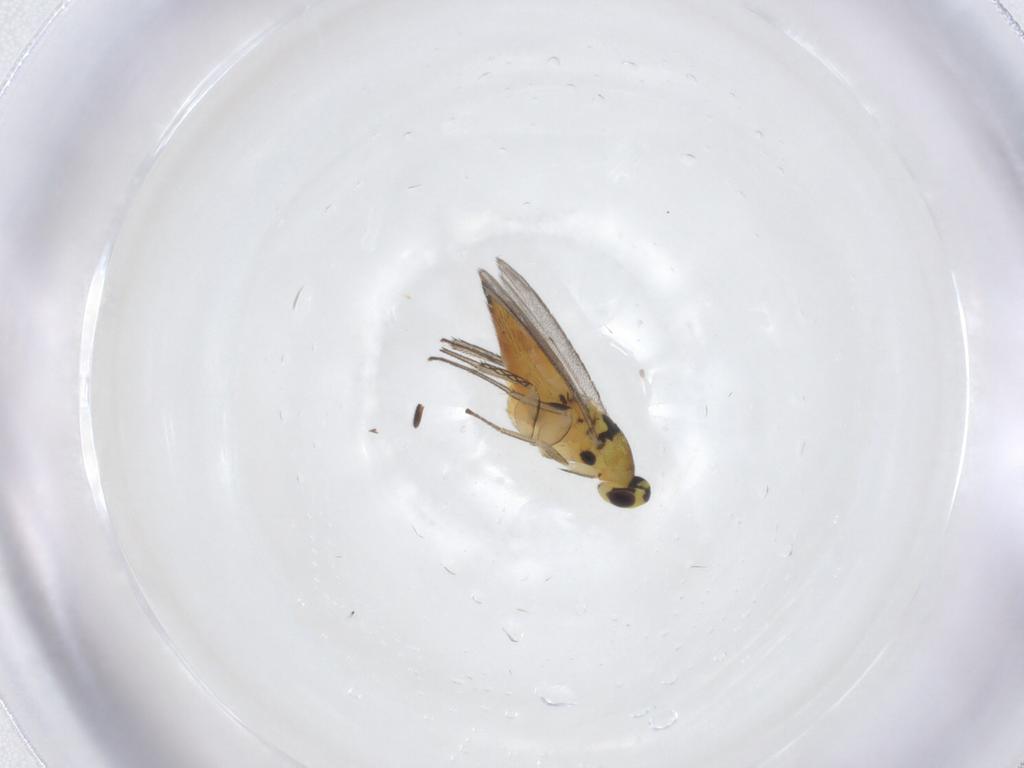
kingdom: Animalia
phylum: Arthropoda
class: Insecta
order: Hymenoptera
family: Braconidae
